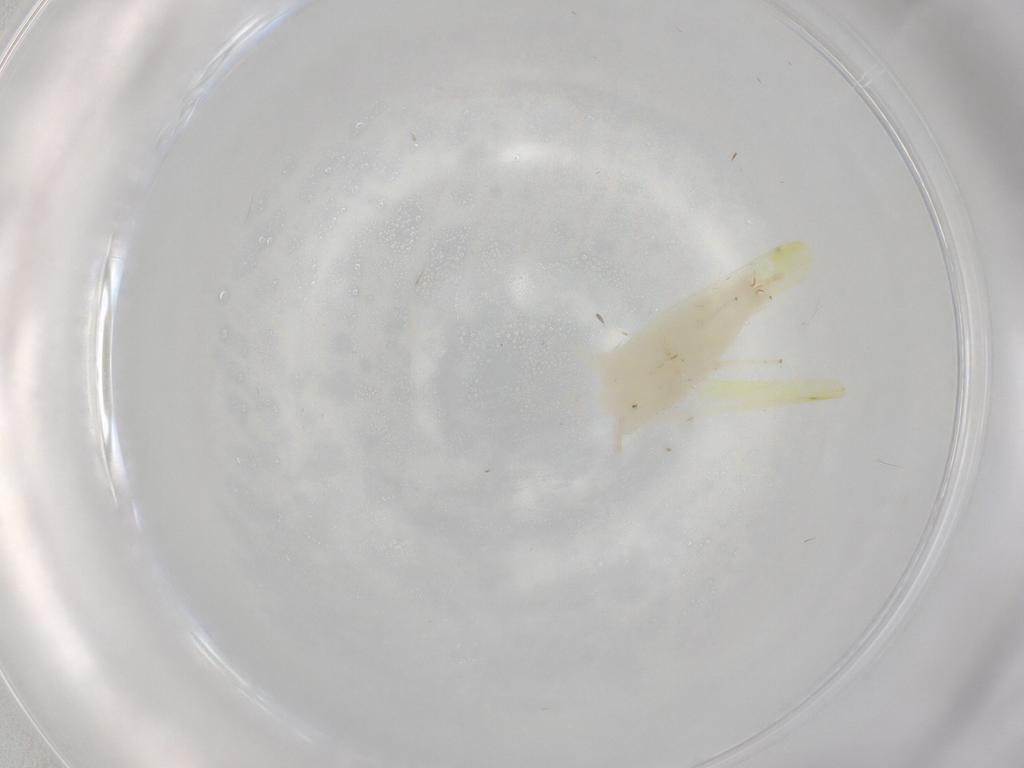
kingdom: Animalia
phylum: Arthropoda
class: Insecta
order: Hemiptera
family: Cicadellidae
